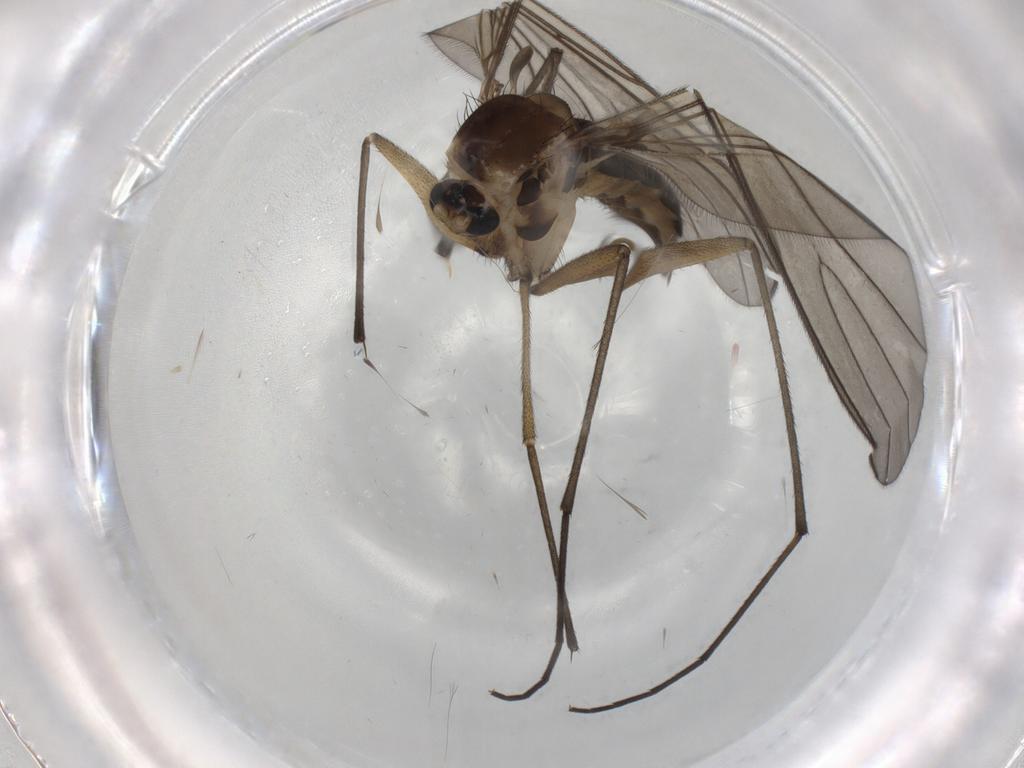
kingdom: Animalia
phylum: Arthropoda
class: Insecta
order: Diptera
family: Sciaridae
